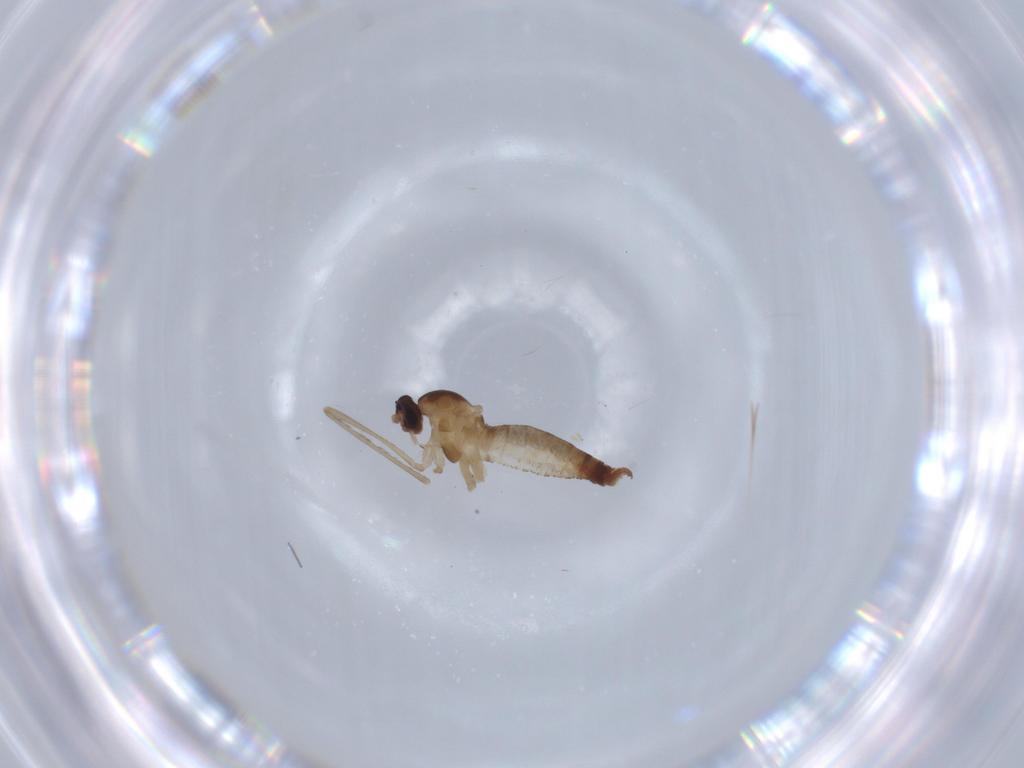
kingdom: Animalia
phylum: Arthropoda
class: Insecta
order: Diptera
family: Cecidomyiidae
